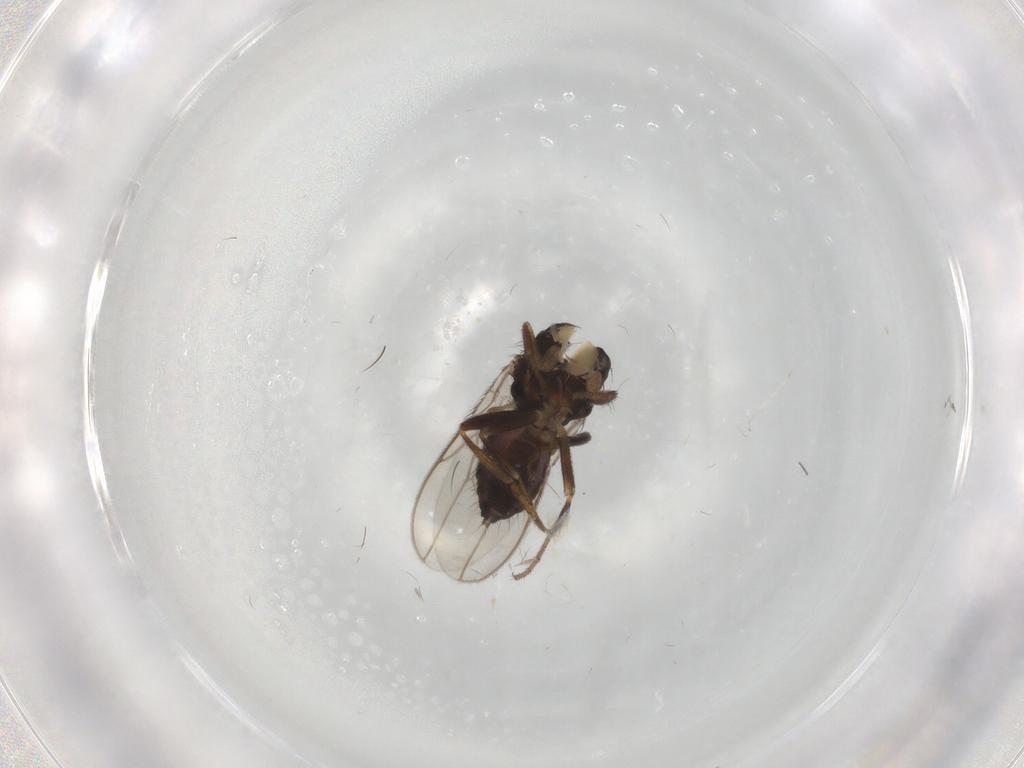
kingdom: Animalia
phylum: Arthropoda
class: Insecta
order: Diptera
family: Sphaeroceridae
